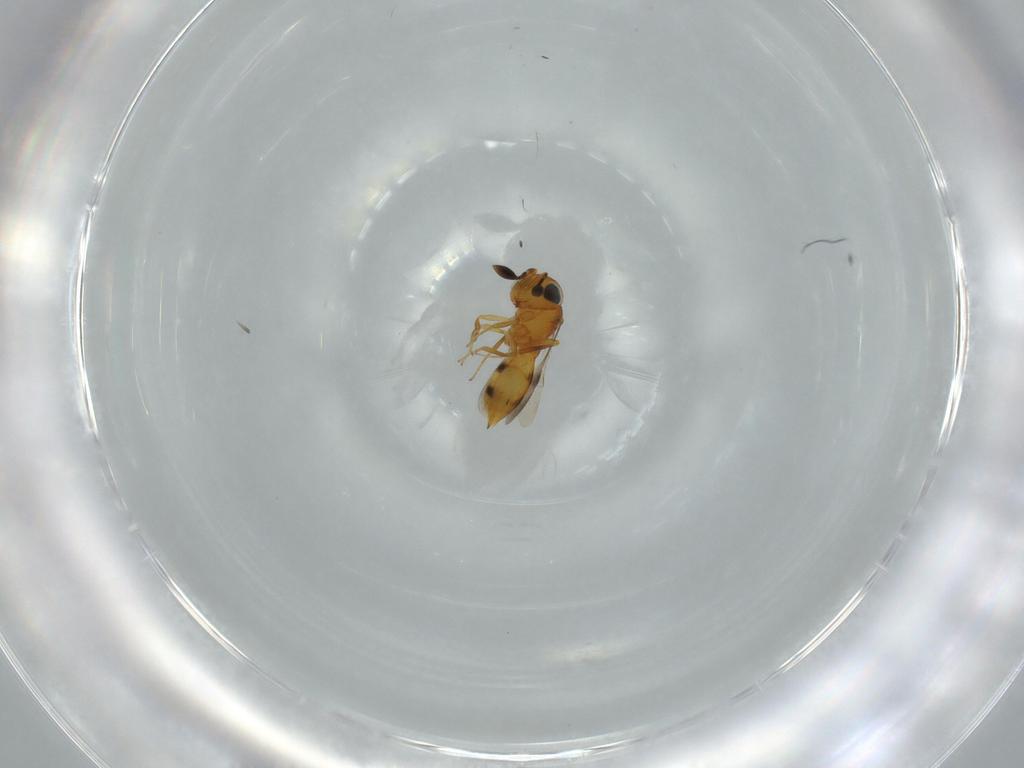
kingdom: Animalia
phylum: Arthropoda
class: Insecta
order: Hymenoptera
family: Scelionidae
